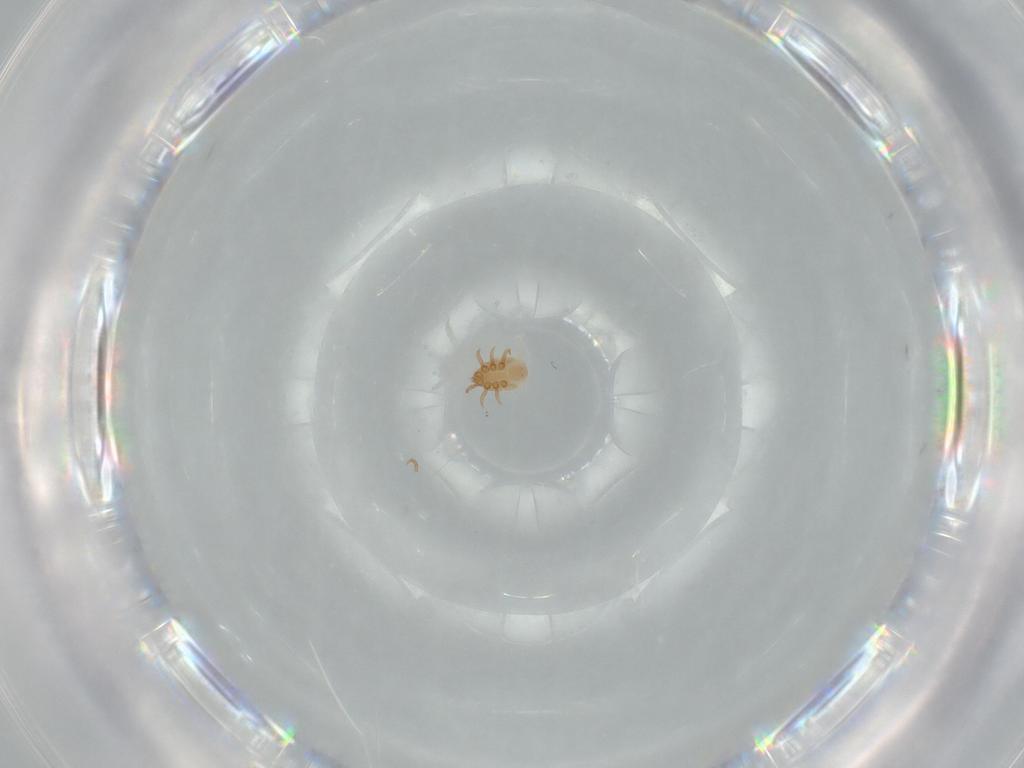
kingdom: Animalia
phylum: Arthropoda
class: Arachnida
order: Mesostigmata
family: Dinychidae
